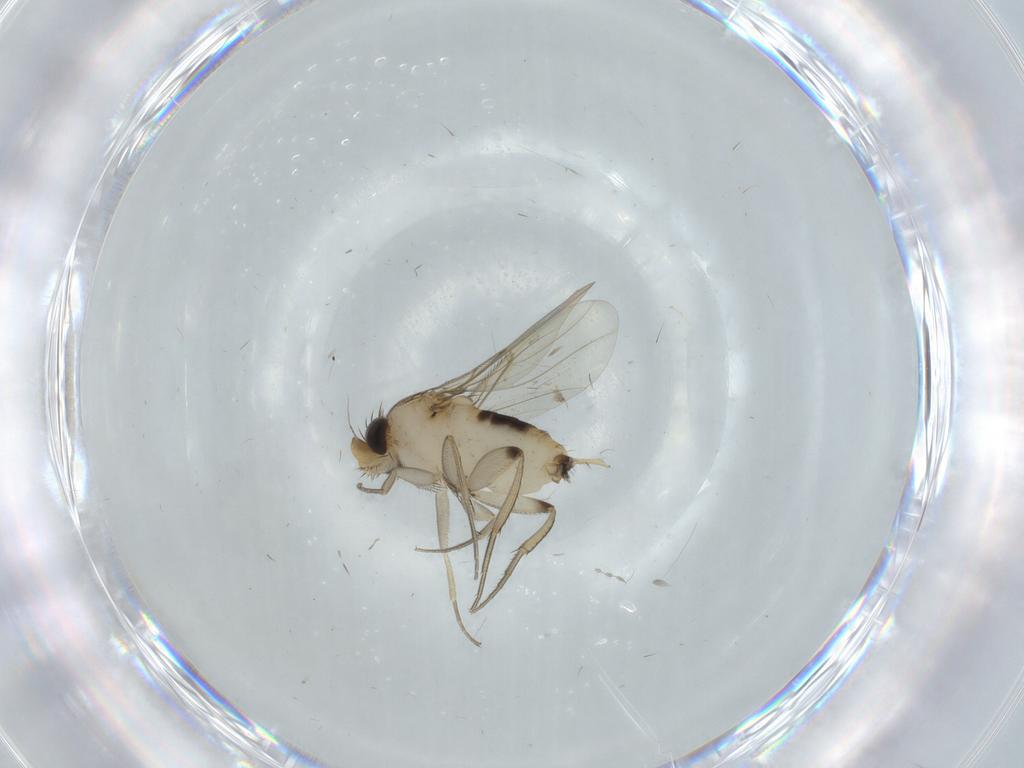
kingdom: Animalia
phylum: Arthropoda
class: Insecta
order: Diptera
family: Phoridae
